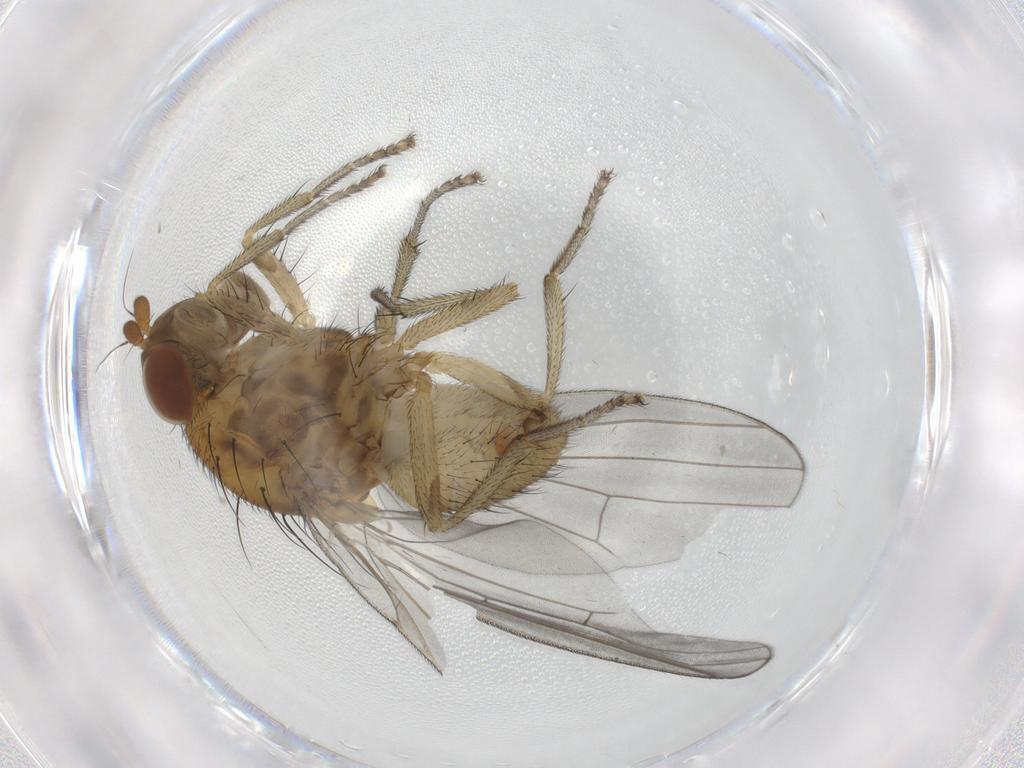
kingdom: Animalia
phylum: Arthropoda
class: Insecta
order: Diptera
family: Lauxaniidae
